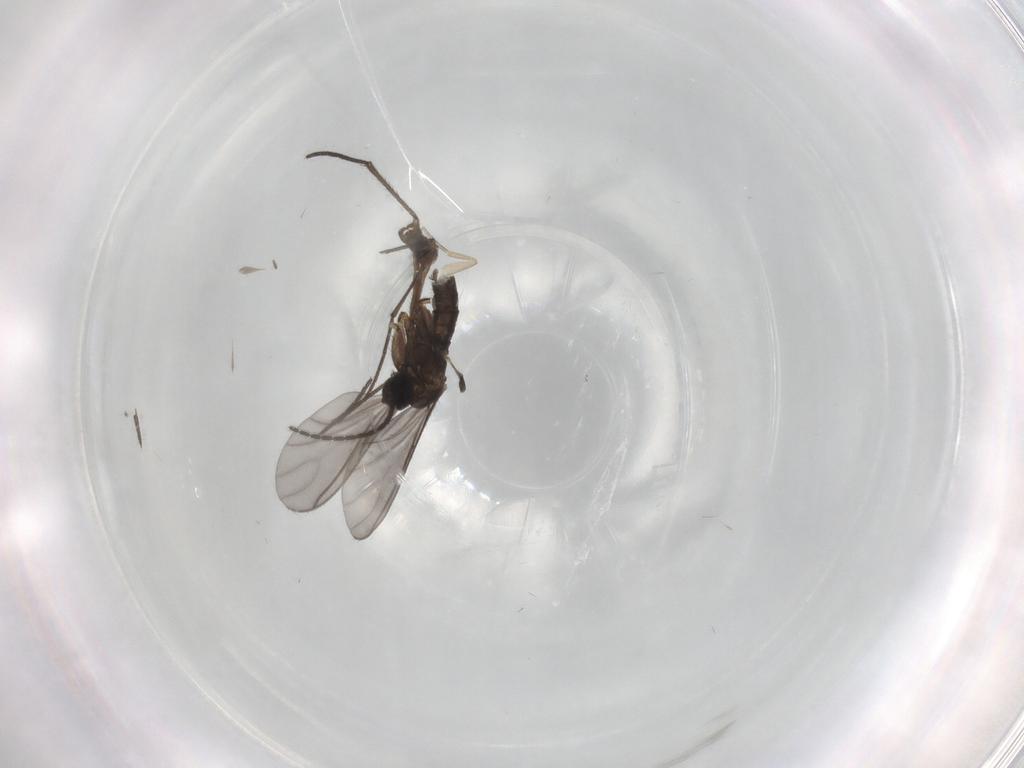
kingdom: Animalia
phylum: Arthropoda
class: Insecta
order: Diptera
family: Sciaridae
